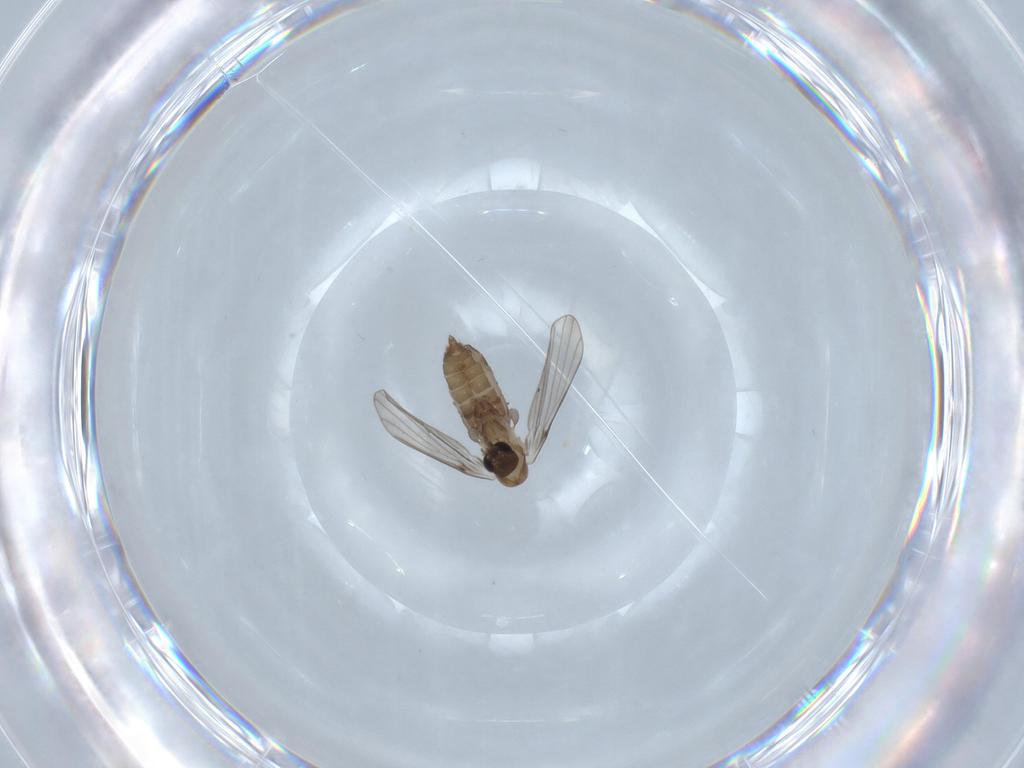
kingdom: Animalia
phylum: Arthropoda
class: Insecta
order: Diptera
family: Psychodidae
